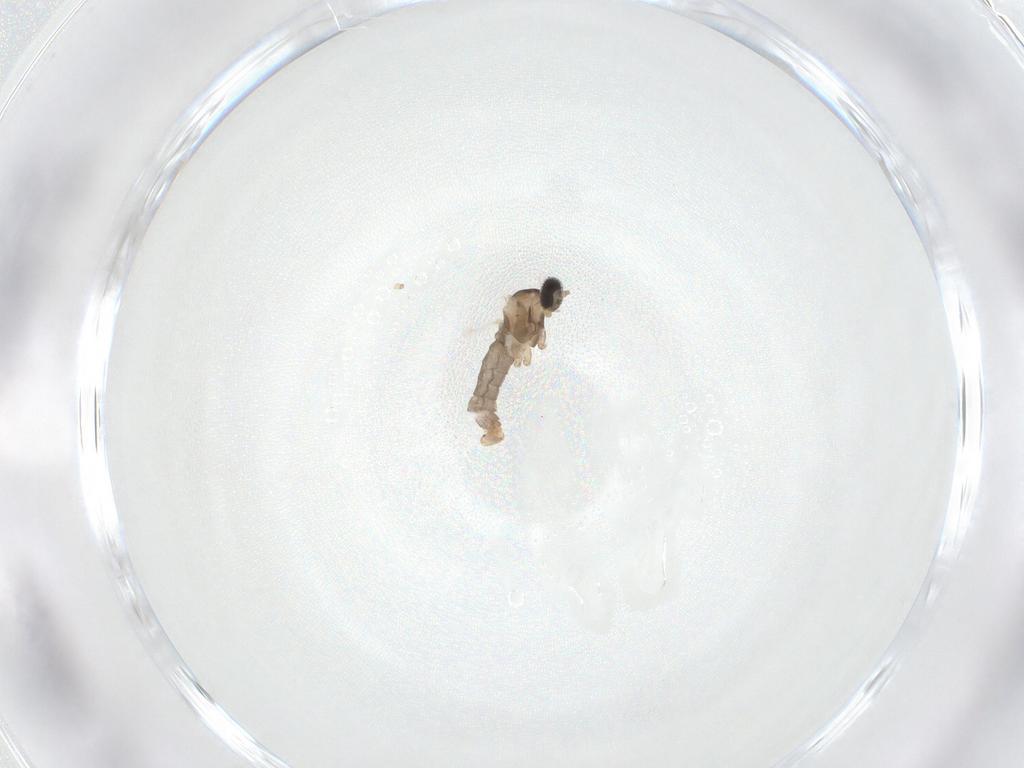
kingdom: Animalia
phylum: Arthropoda
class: Insecta
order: Diptera
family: Cecidomyiidae
